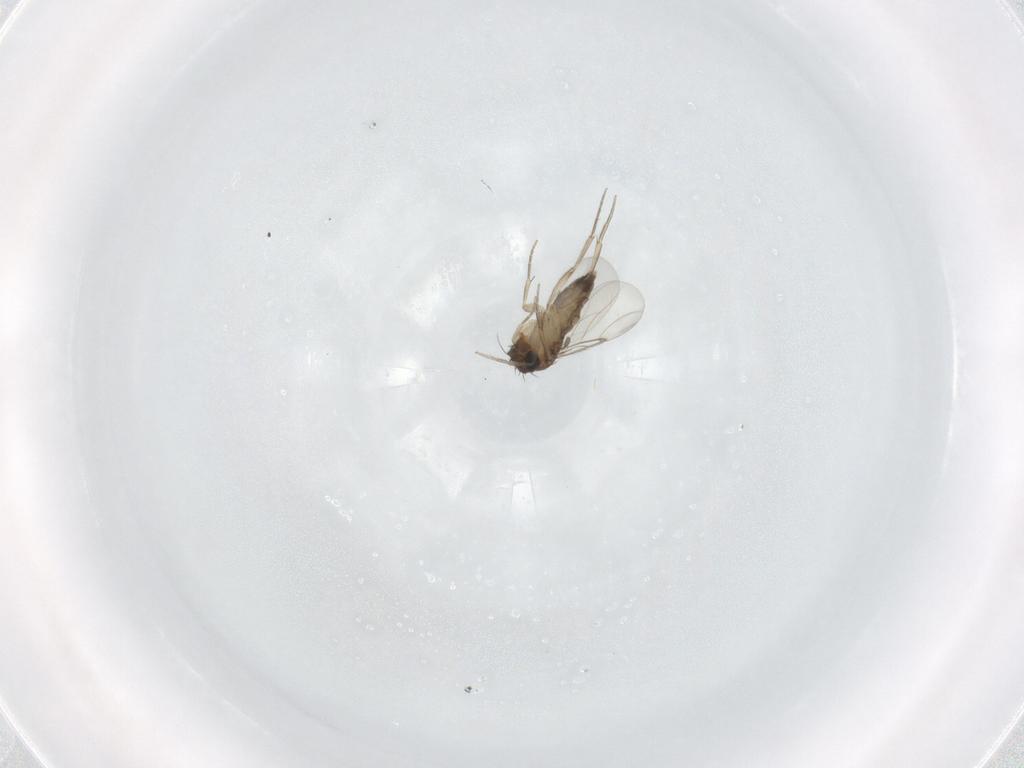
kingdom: Animalia
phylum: Arthropoda
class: Insecta
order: Diptera
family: Phoridae
